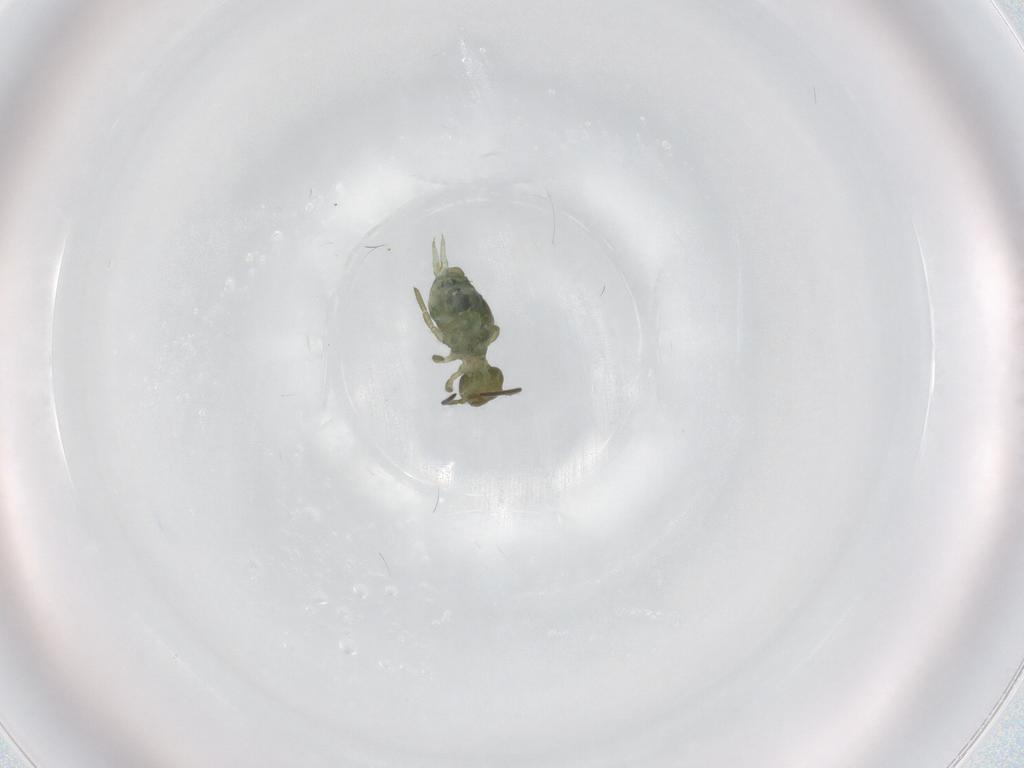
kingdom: Animalia
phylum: Arthropoda
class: Collembola
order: Symphypleona
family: Sminthuridae
